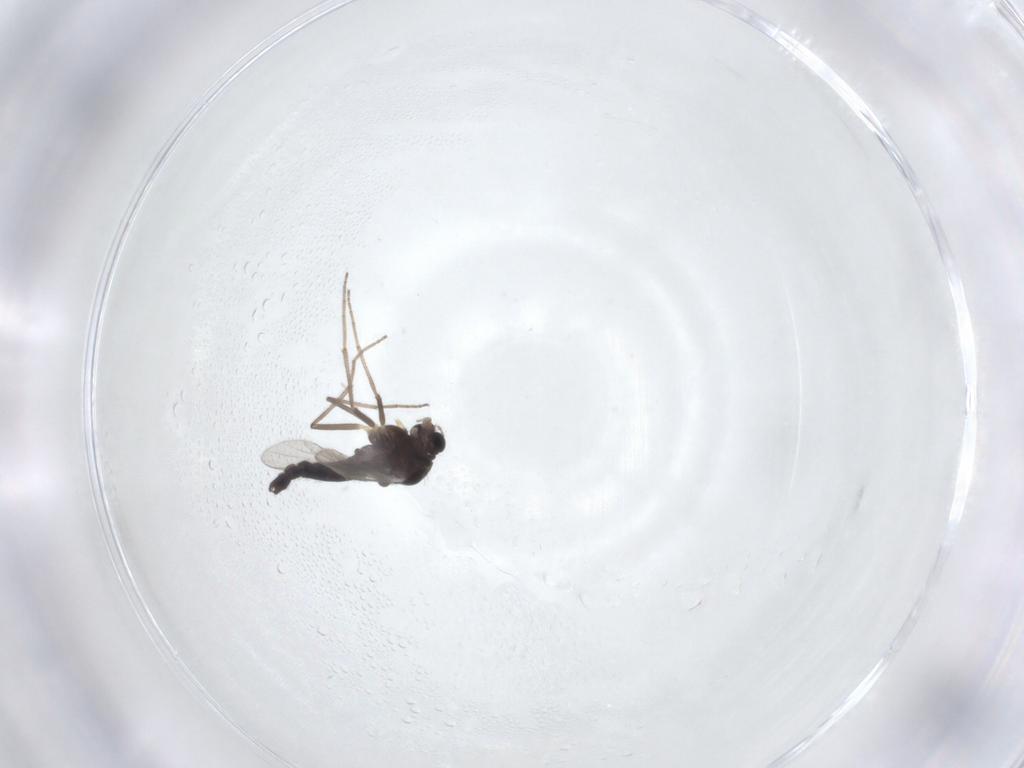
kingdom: Animalia
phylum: Arthropoda
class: Insecta
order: Diptera
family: Chironomidae
